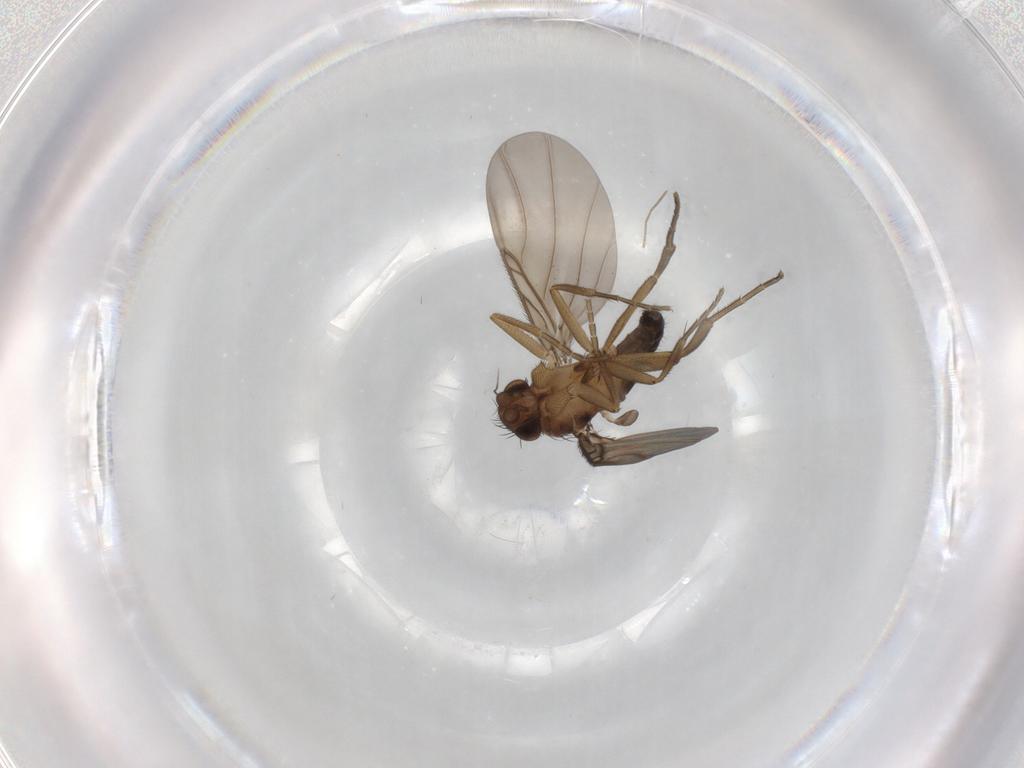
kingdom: Animalia
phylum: Arthropoda
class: Insecta
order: Diptera
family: Phoridae
